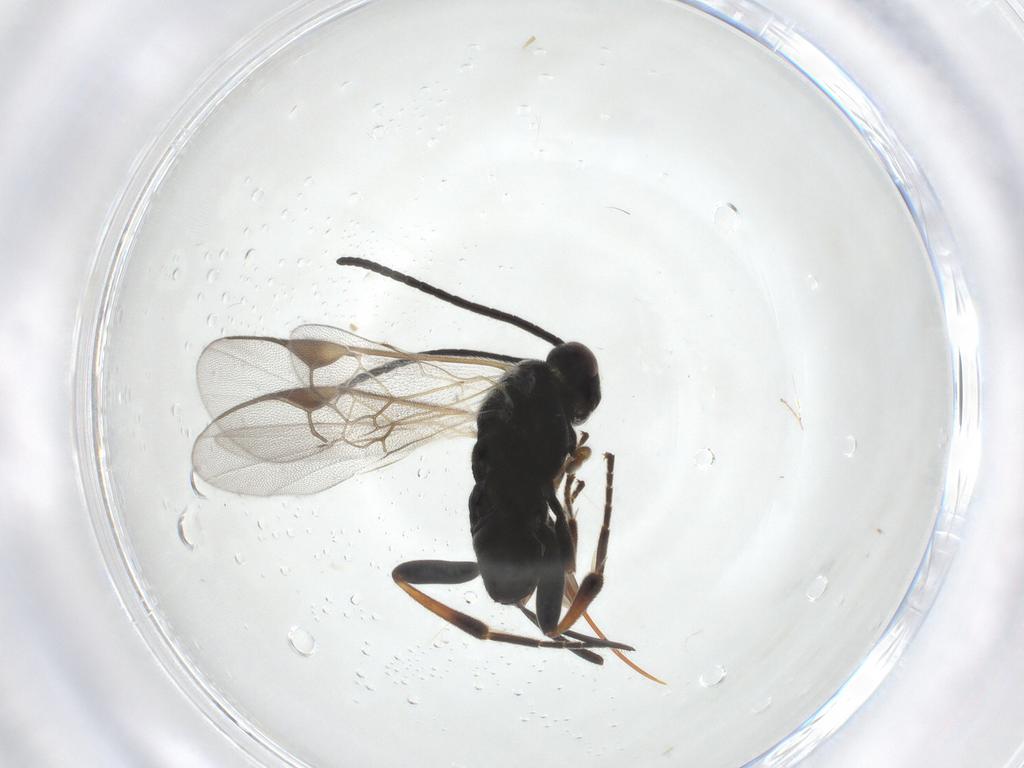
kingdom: Animalia
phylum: Arthropoda
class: Insecta
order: Hymenoptera
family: Braconidae
